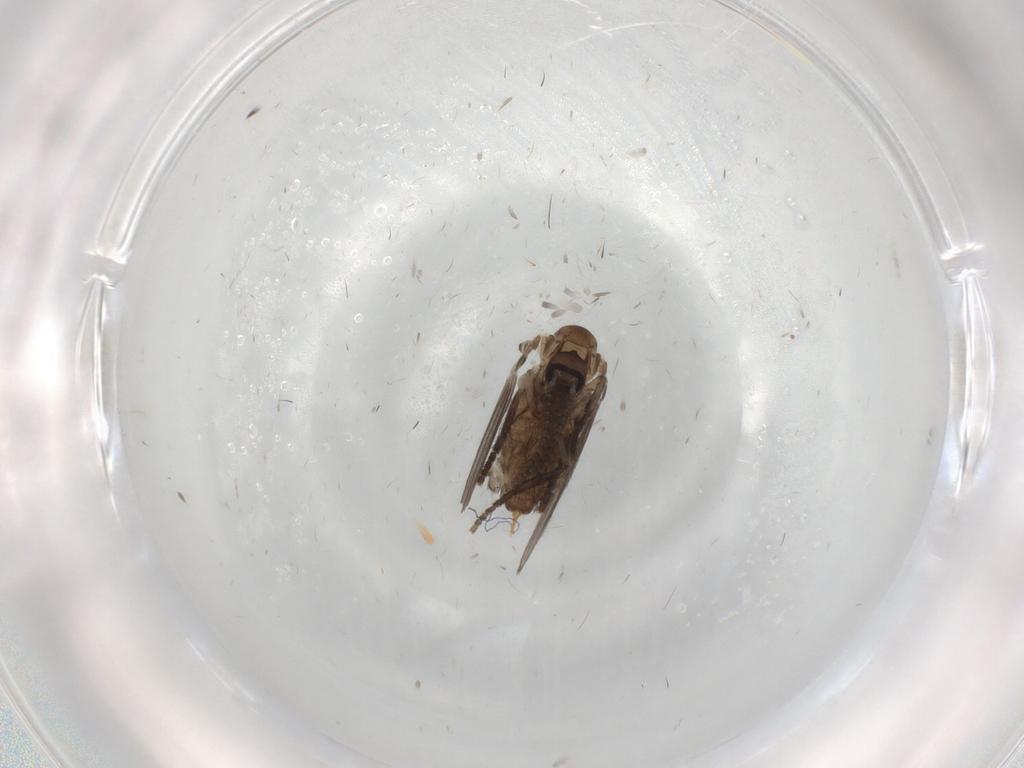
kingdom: Animalia
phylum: Arthropoda
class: Insecta
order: Diptera
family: Psychodidae
